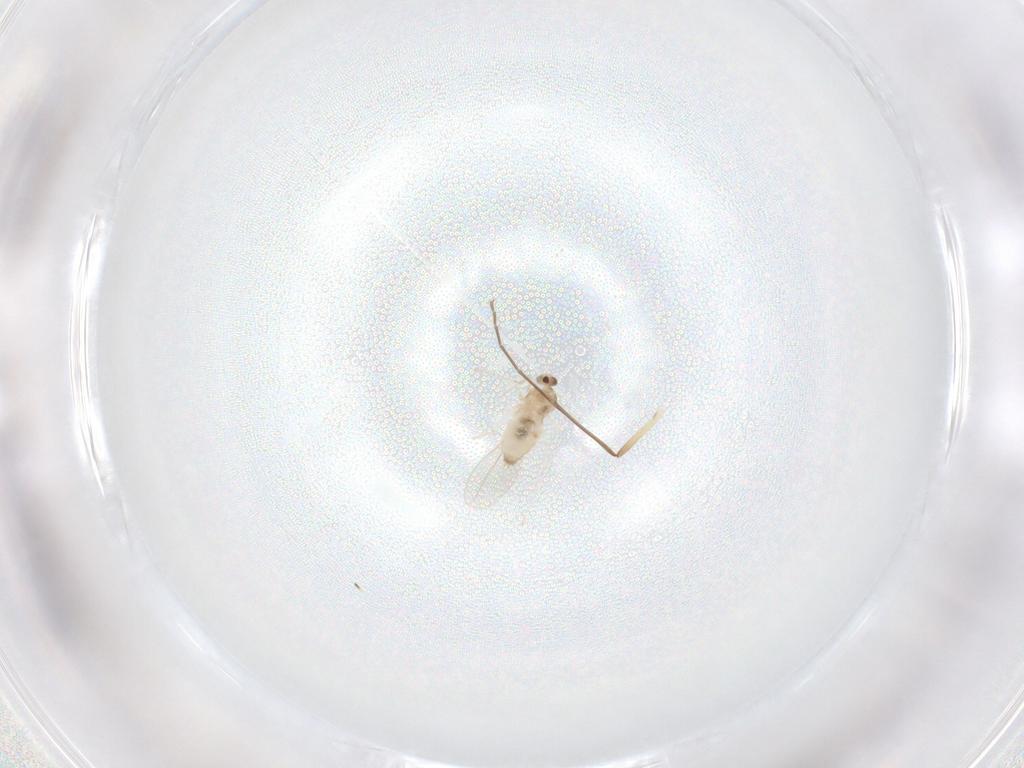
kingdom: Animalia
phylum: Arthropoda
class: Insecta
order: Diptera
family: Cecidomyiidae
